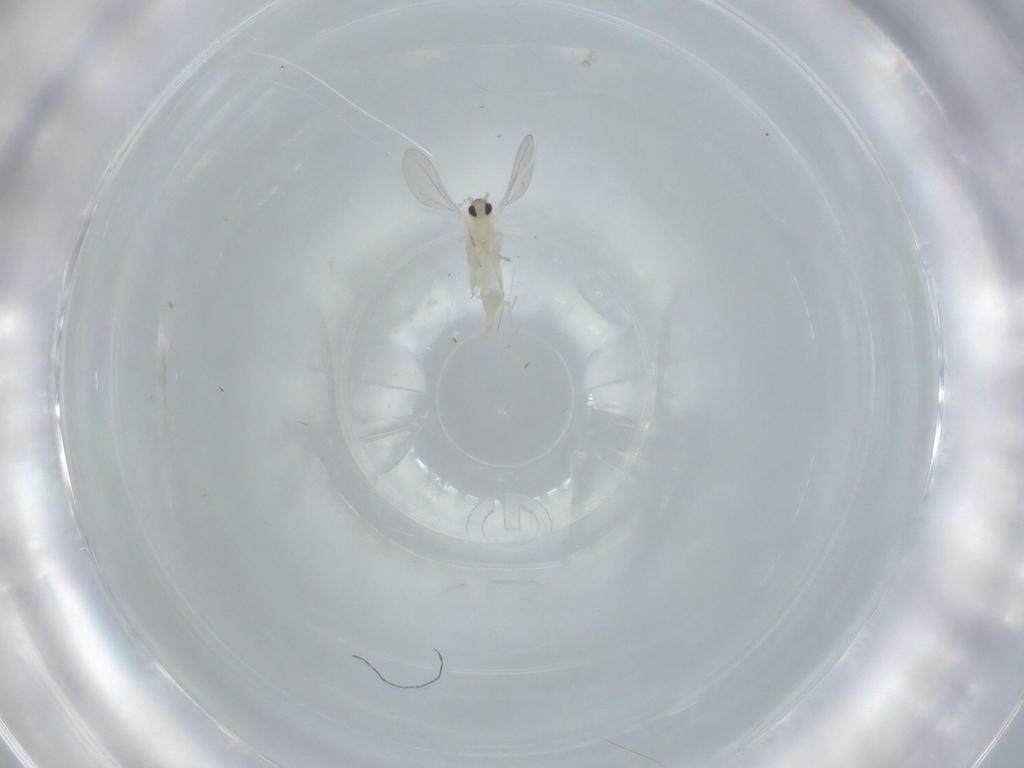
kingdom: Animalia
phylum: Arthropoda
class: Insecta
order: Diptera
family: Cecidomyiidae
